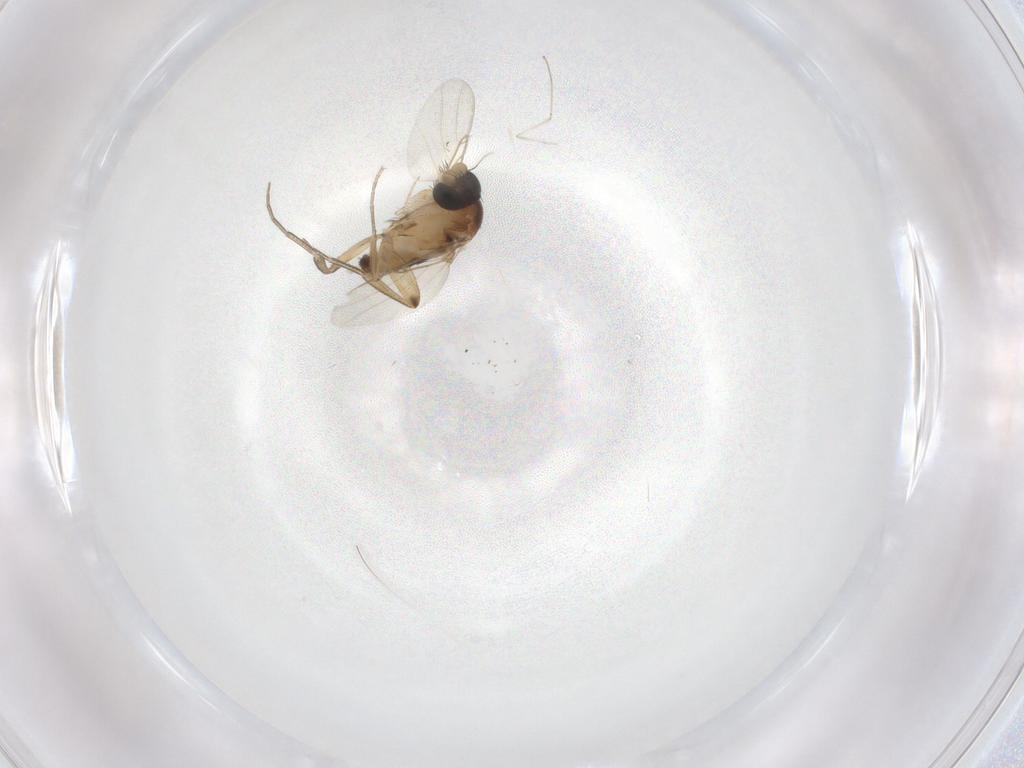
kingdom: Animalia
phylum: Arthropoda
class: Insecta
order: Diptera
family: Phoridae
